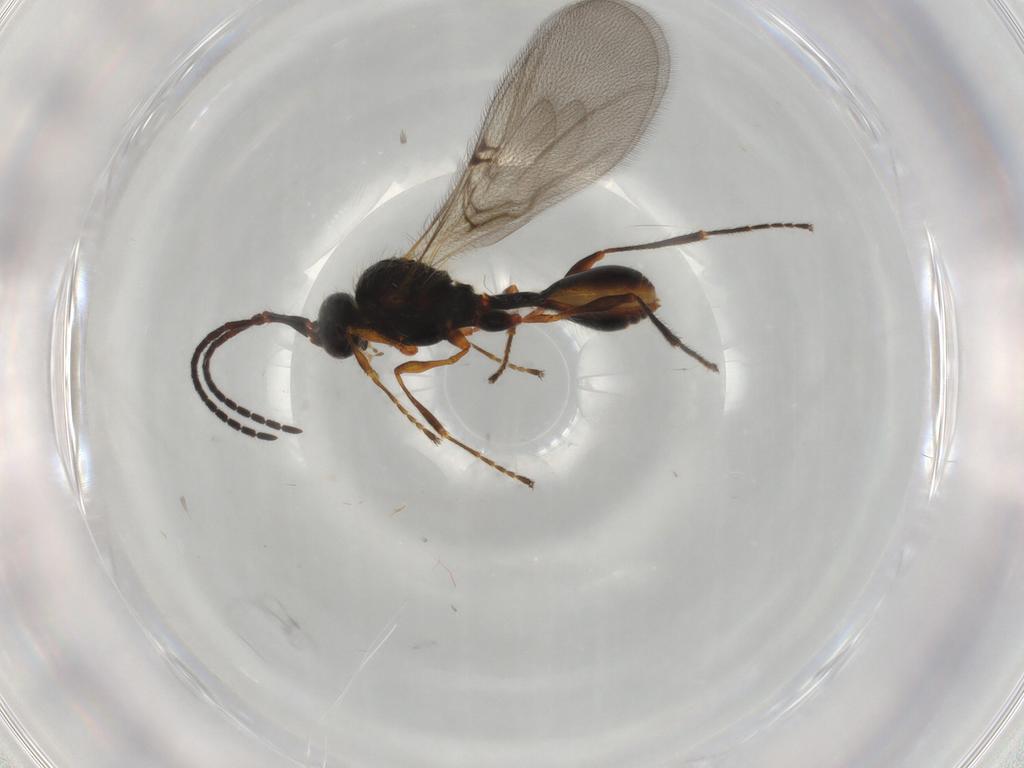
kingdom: Animalia
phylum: Arthropoda
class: Insecta
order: Hymenoptera
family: Diapriidae
